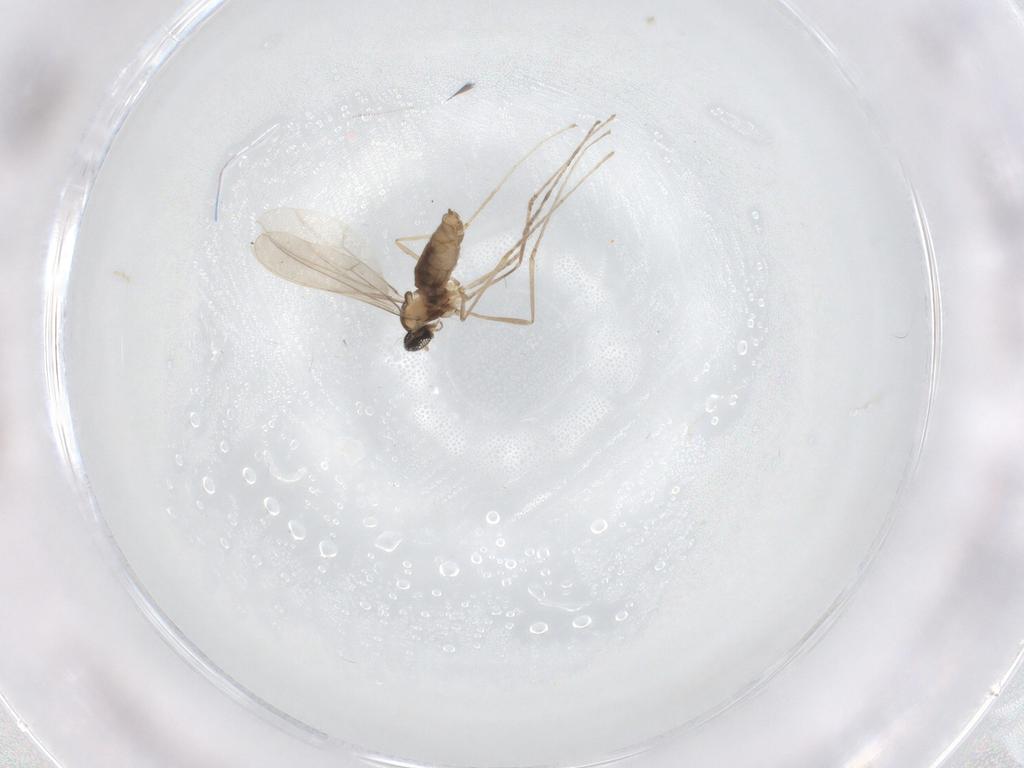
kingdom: Animalia
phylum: Arthropoda
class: Insecta
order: Diptera
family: Cecidomyiidae
